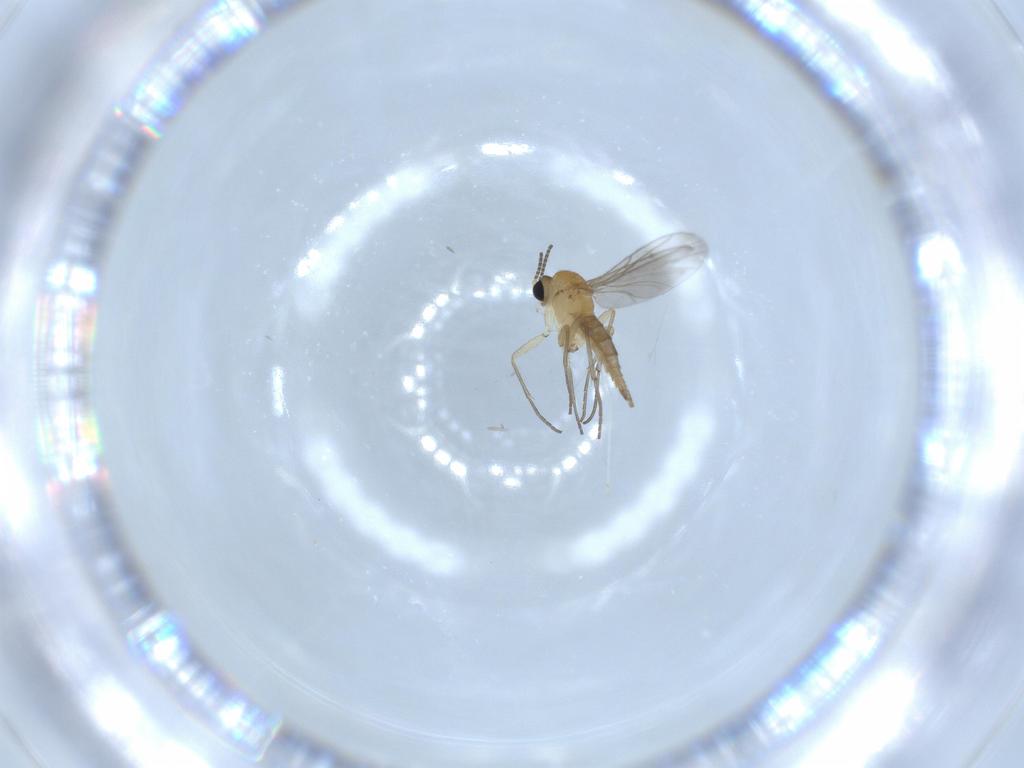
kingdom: Animalia
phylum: Arthropoda
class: Insecta
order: Diptera
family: Sciaridae
